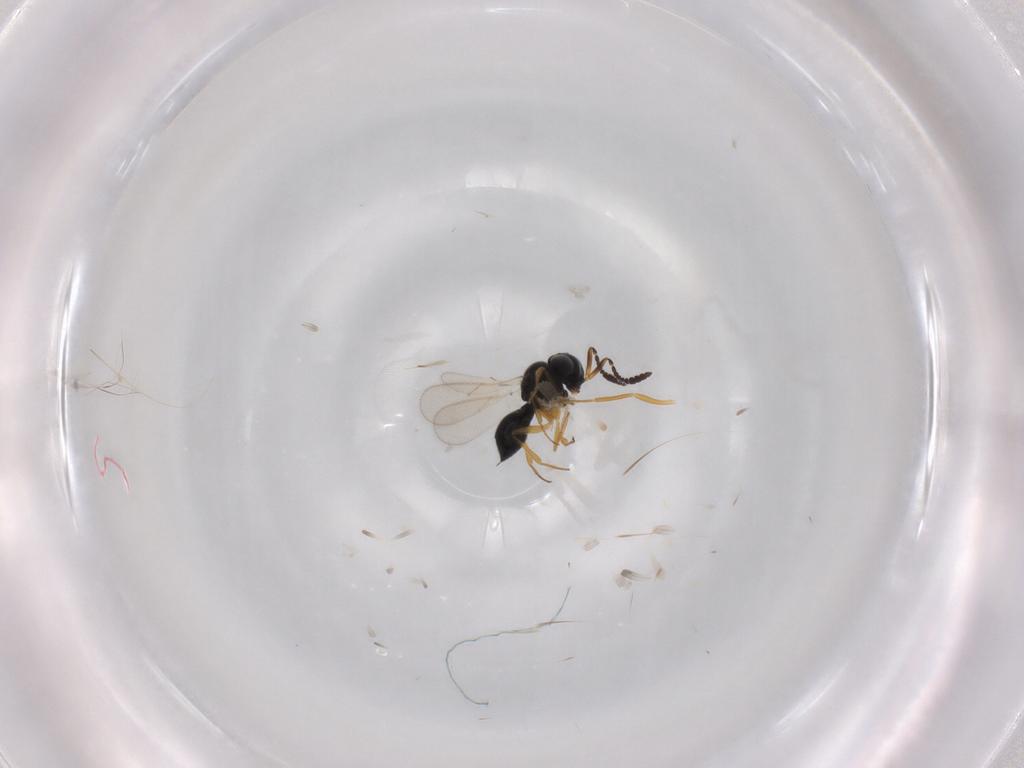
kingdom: Animalia
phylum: Arthropoda
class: Insecta
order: Hymenoptera
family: Scelionidae
